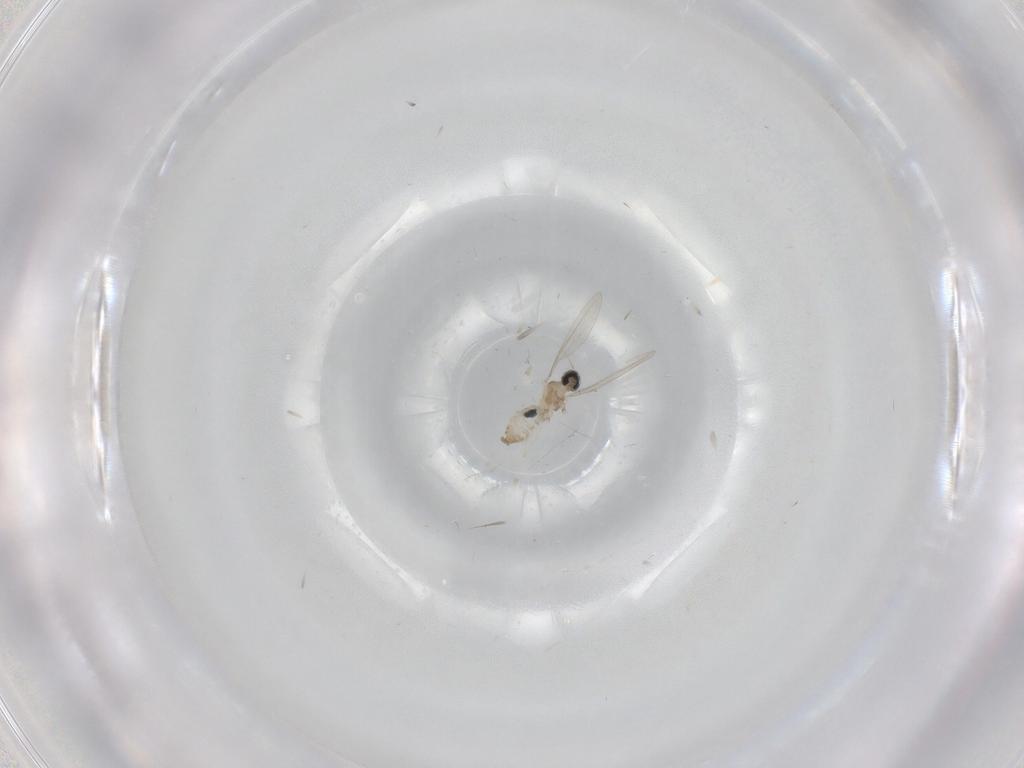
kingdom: Animalia
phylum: Arthropoda
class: Insecta
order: Diptera
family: Cecidomyiidae
